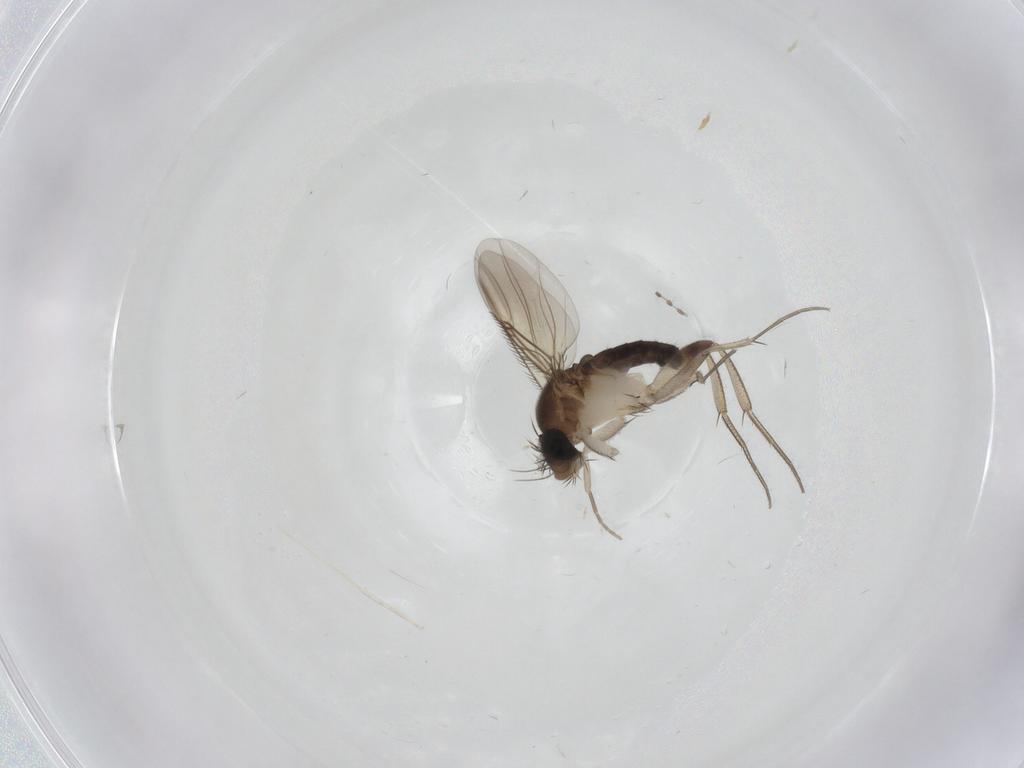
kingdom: Animalia
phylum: Arthropoda
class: Insecta
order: Diptera
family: Phoridae
